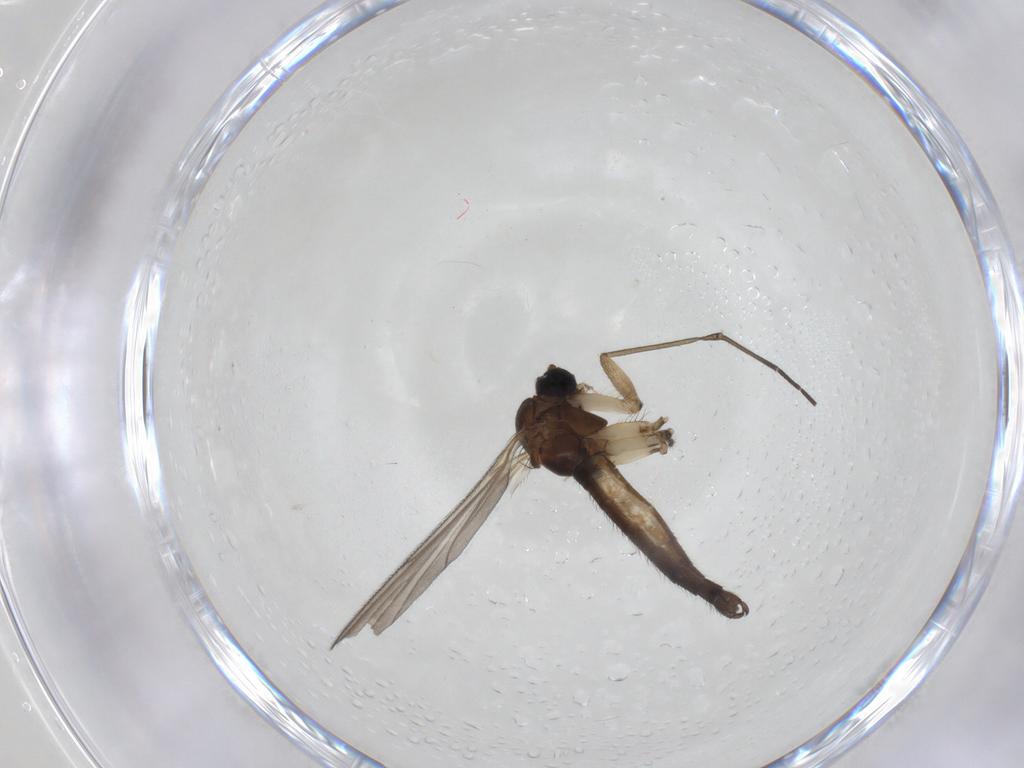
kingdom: Animalia
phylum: Arthropoda
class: Insecta
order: Diptera
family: Sciaridae
